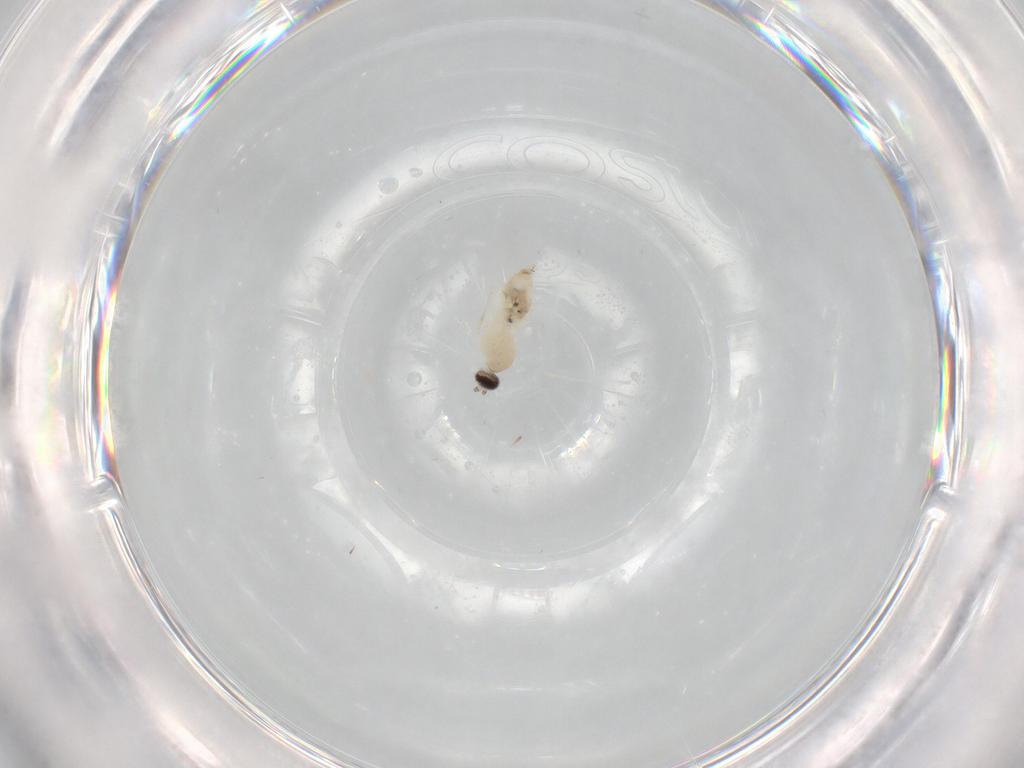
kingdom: Animalia
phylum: Arthropoda
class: Insecta
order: Diptera
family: Cecidomyiidae
